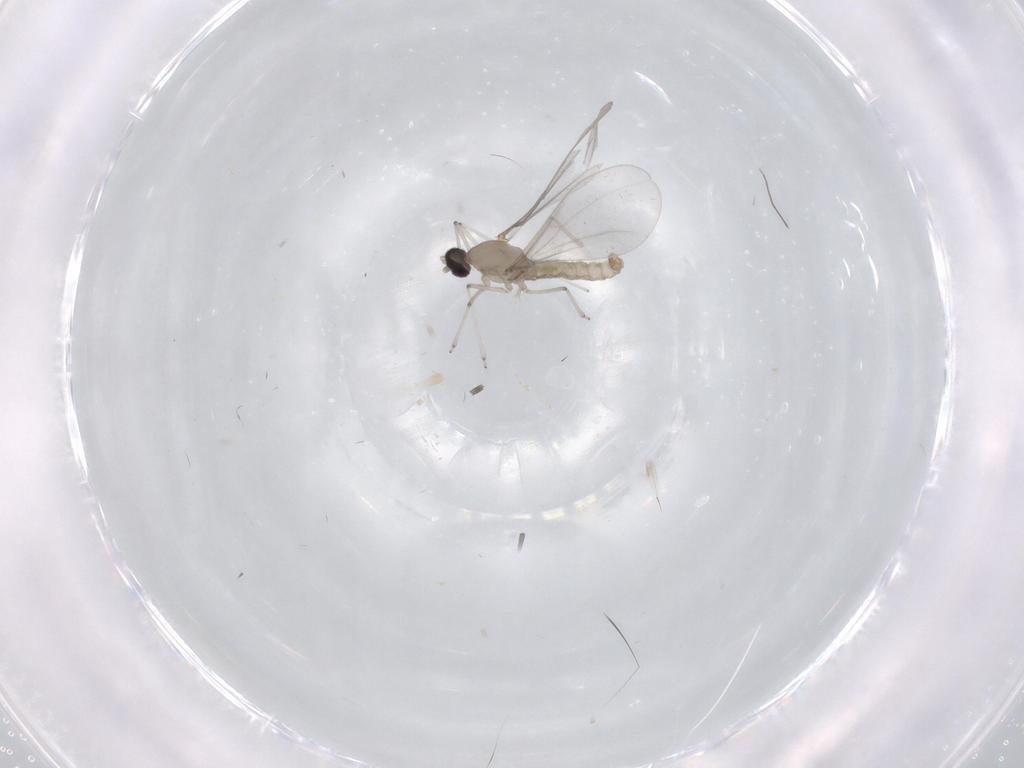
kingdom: Animalia
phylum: Arthropoda
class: Insecta
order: Diptera
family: Cecidomyiidae
